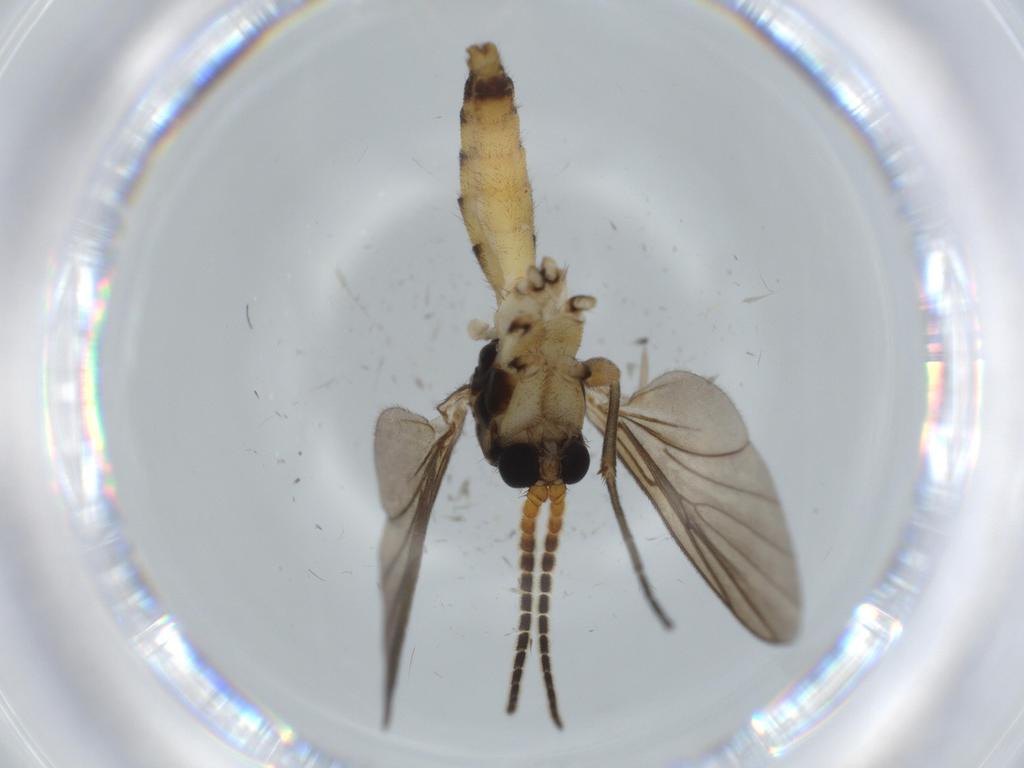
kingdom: Animalia
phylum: Arthropoda
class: Insecta
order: Diptera
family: Phoridae
